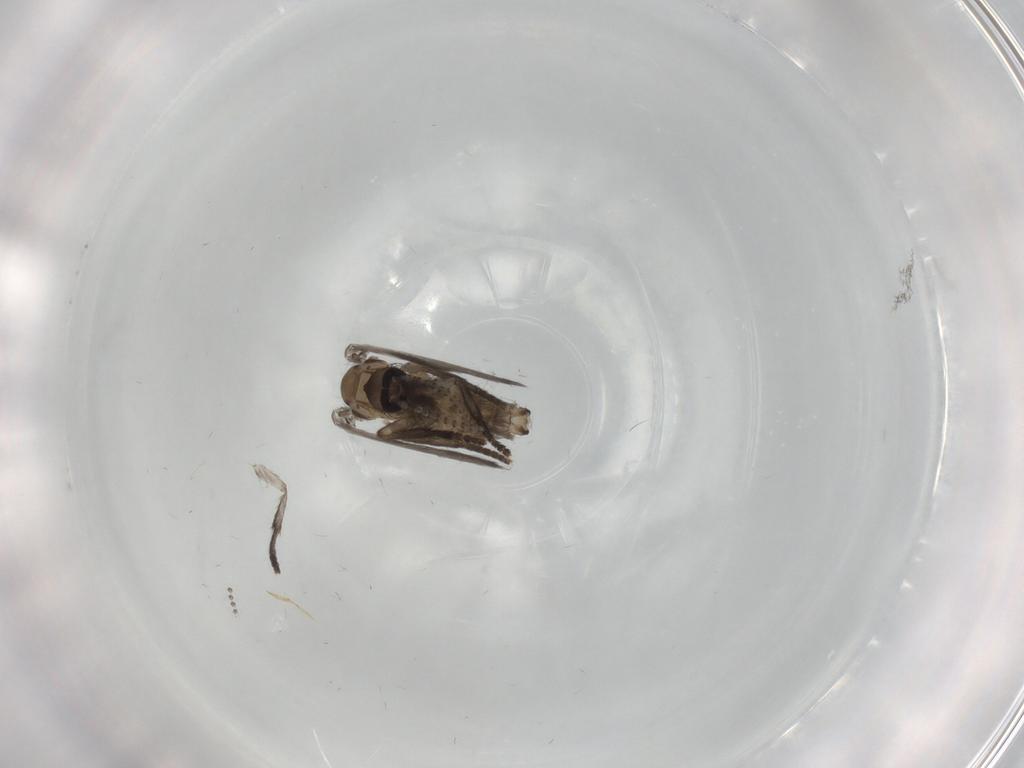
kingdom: Animalia
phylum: Arthropoda
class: Insecta
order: Diptera
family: Psychodidae
